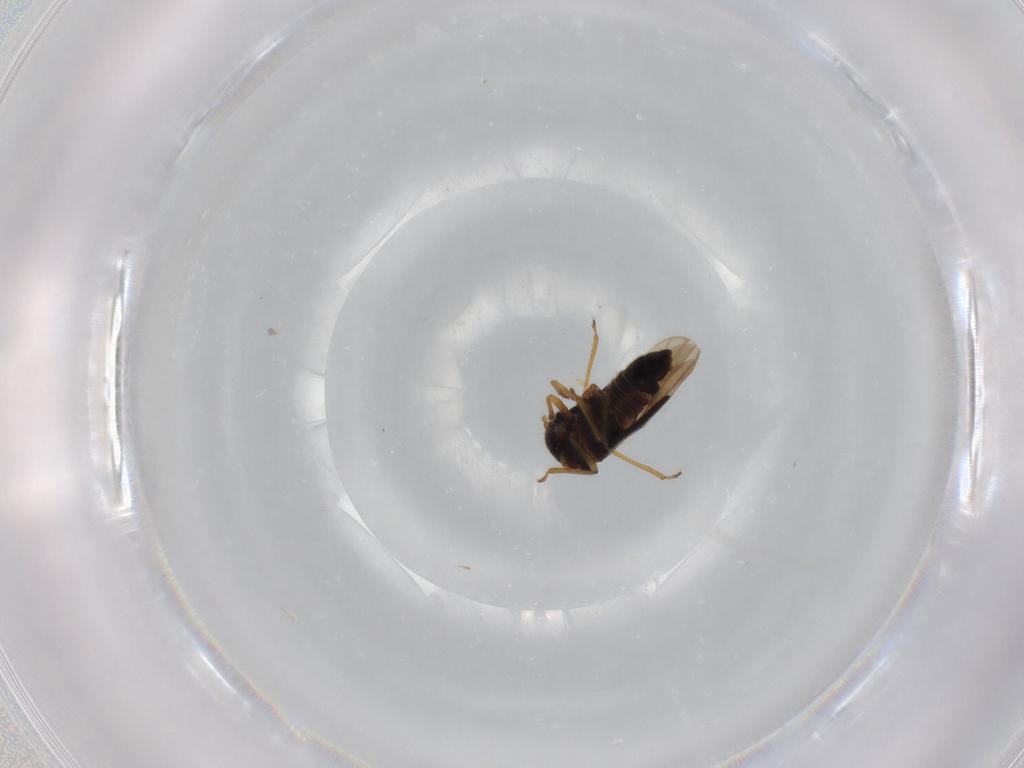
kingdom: Animalia
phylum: Arthropoda
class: Insecta
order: Hemiptera
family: Schizopteridae
